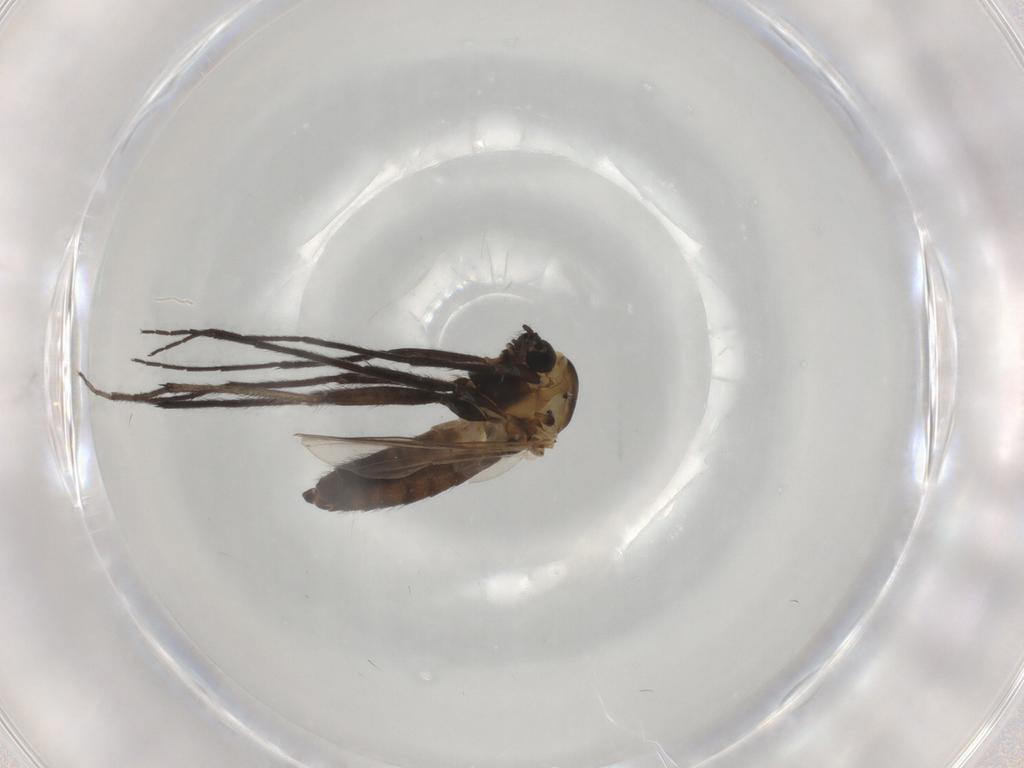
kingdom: Animalia
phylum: Arthropoda
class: Insecta
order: Diptera
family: Chironomidae
